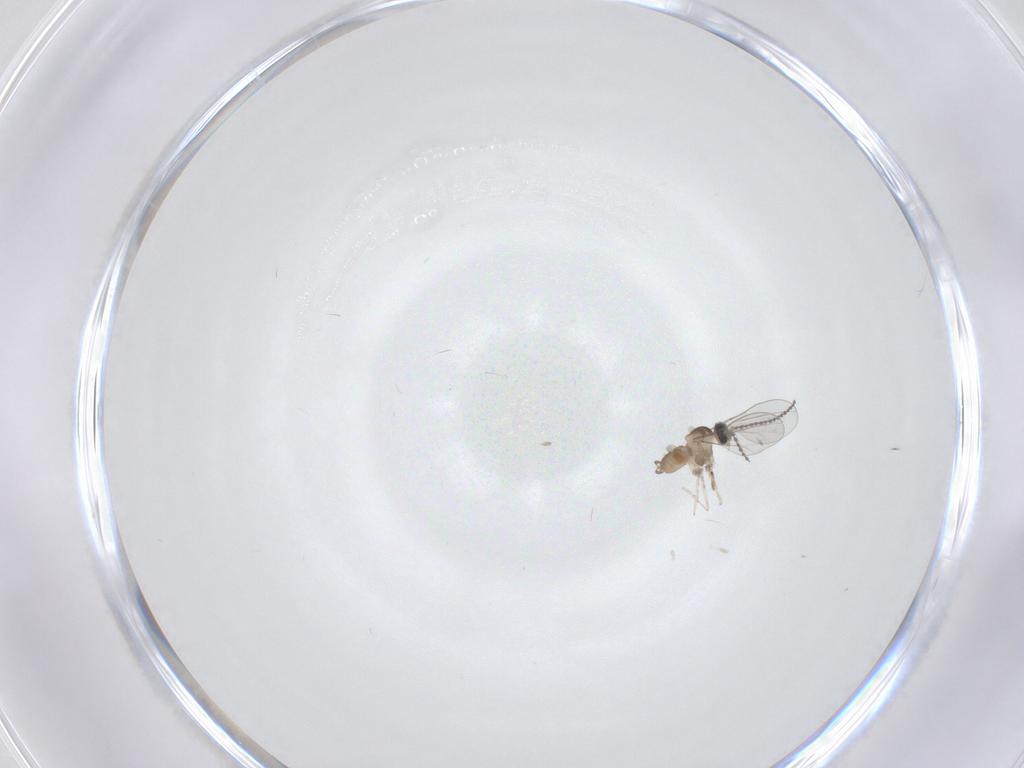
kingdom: Animalia
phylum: Arthropoda
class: Insecta
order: Diptera
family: Cecidomyiidae
